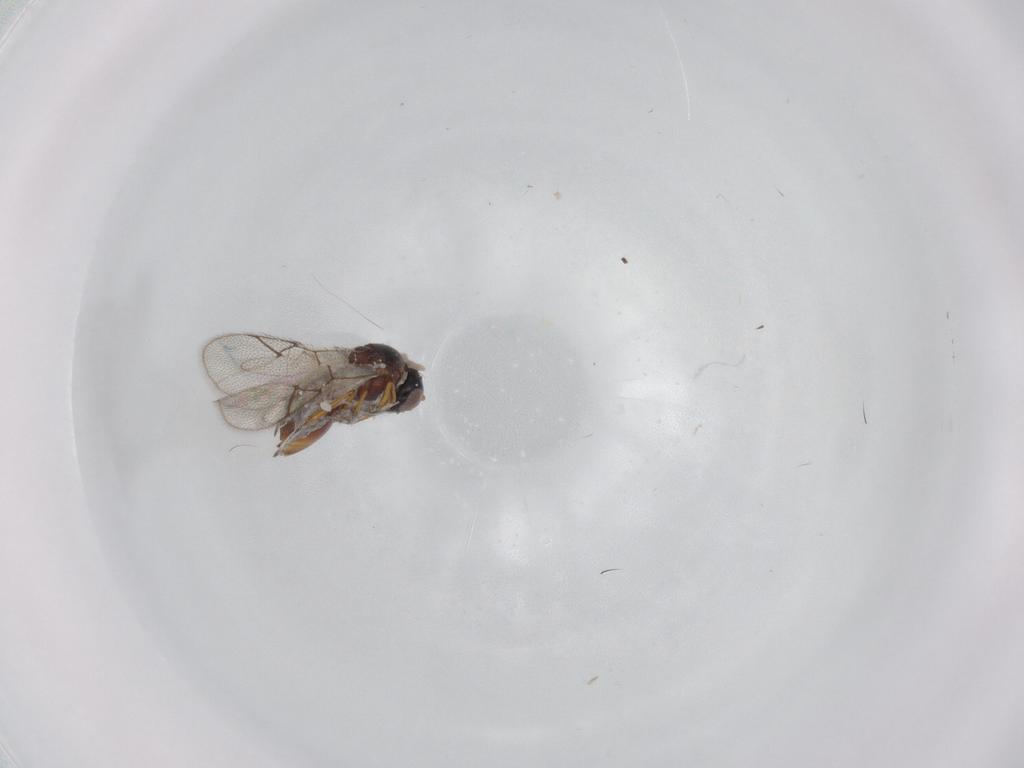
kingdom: Animalia
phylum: Arthropoda
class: Insecta
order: Hymenoptera
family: Figitidae
